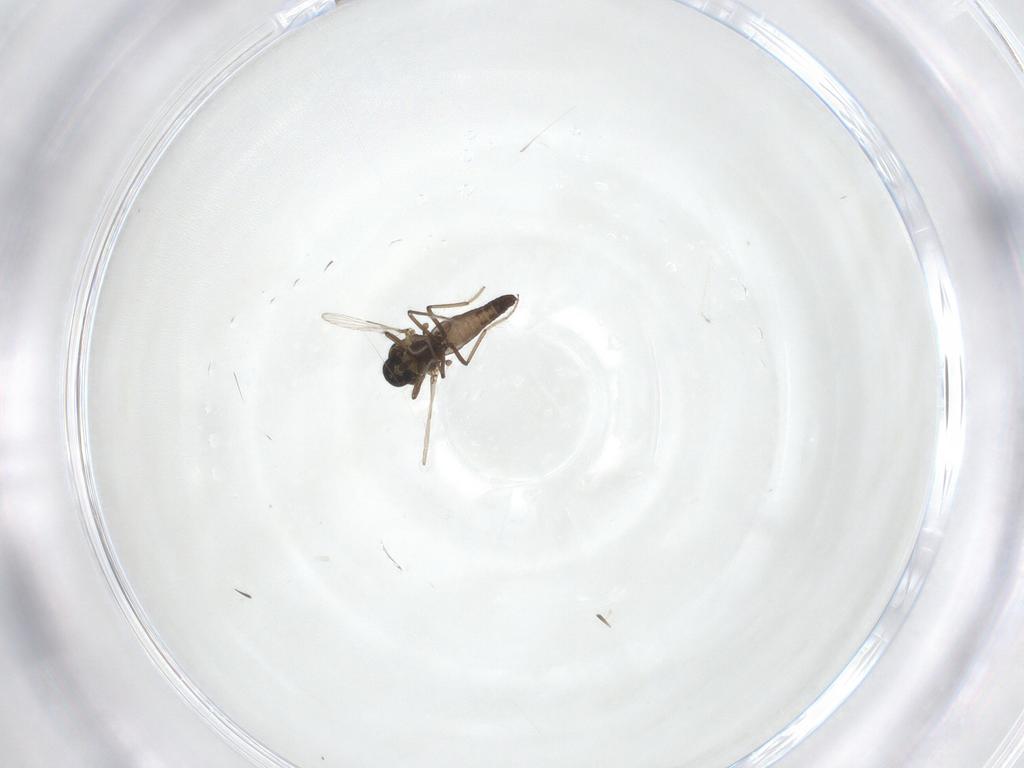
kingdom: Animalia
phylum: Arthropoda
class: Insecta
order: Diptera
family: Ceratopogonidae
